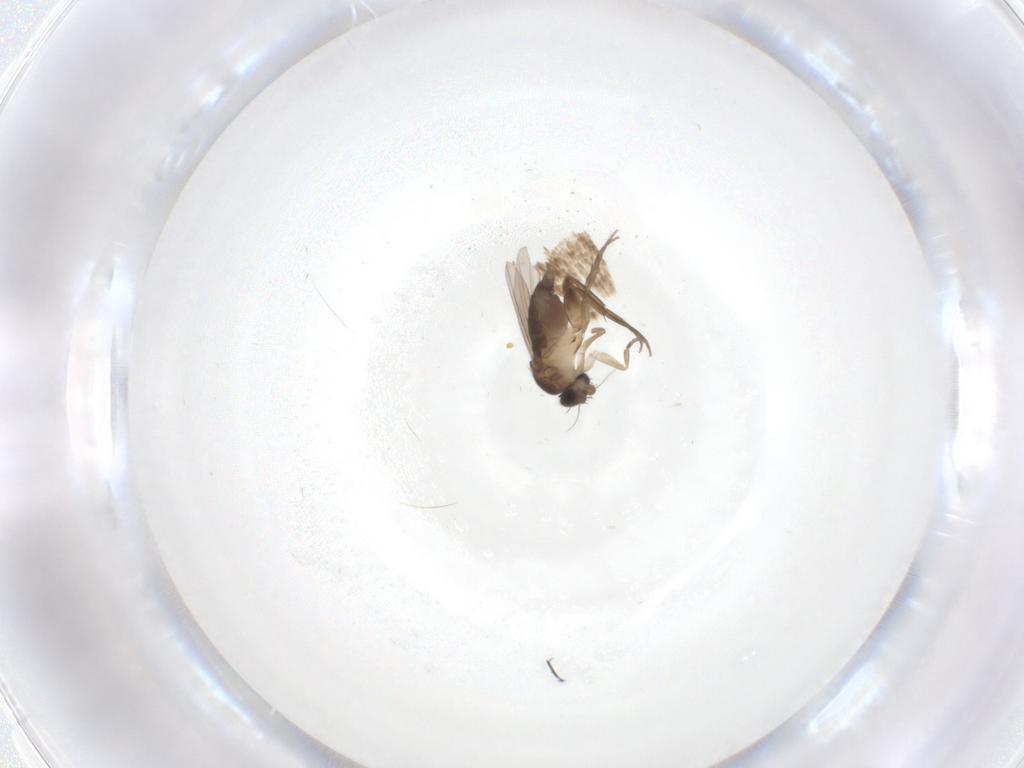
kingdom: Animalia
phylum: Arthropoda
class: Insecta
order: Diptera
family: Phoridae
